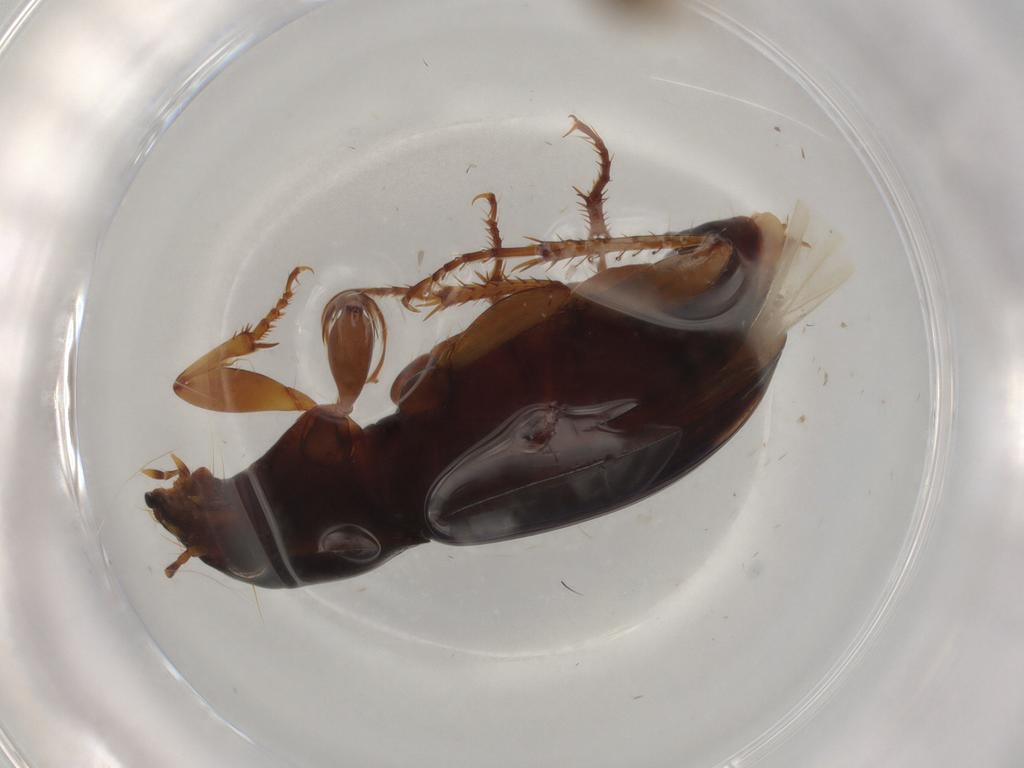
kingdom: Animalia
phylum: Arthropoda
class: Insecta
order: Coleoptera
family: Carabidae
